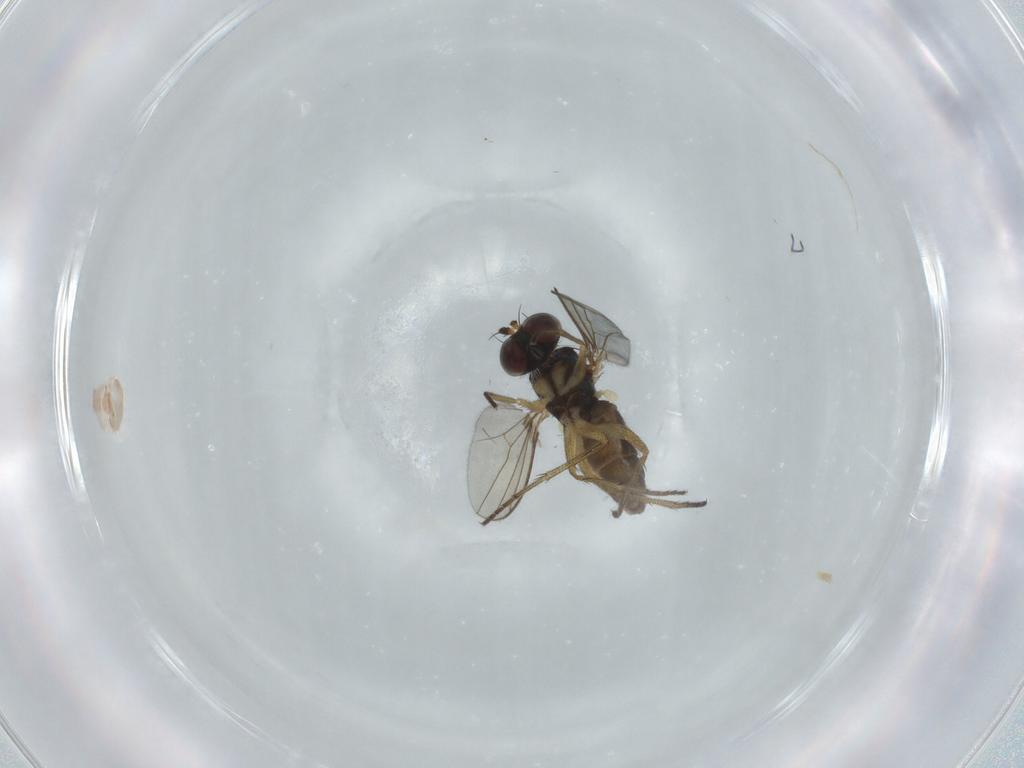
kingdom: Animalia
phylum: Arthropoda
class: Insecta
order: Diptera
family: Dolichopodidae
